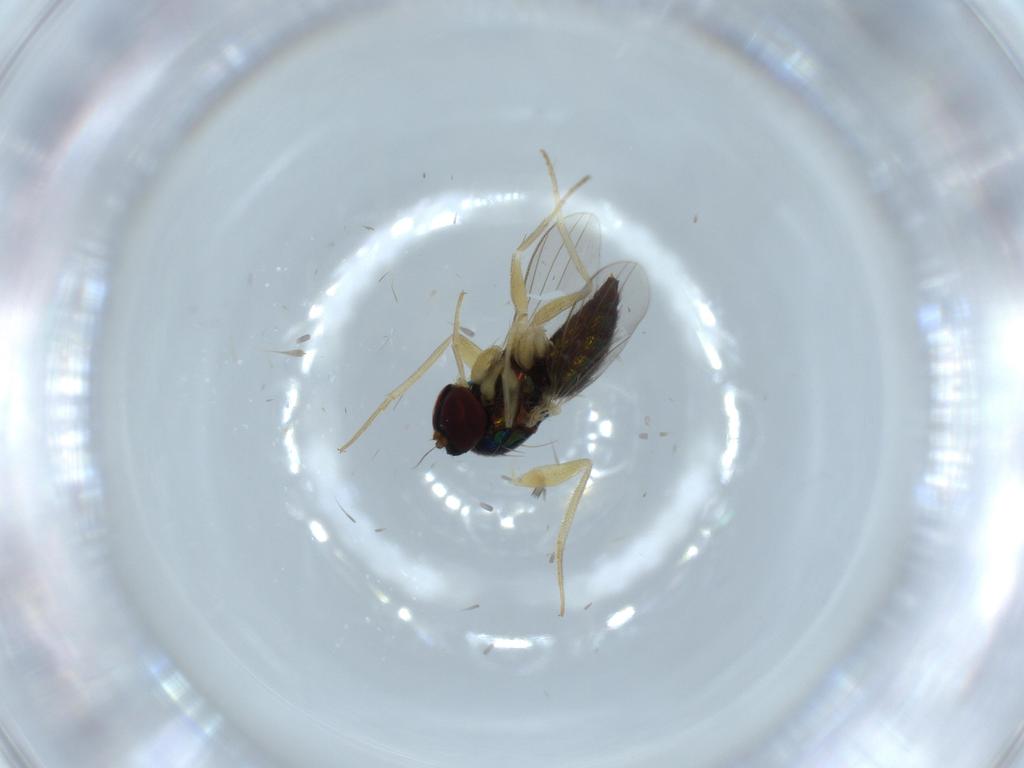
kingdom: Animalia
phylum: Arthropoda
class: Insecta
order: Diptera
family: Dolichopodidae
